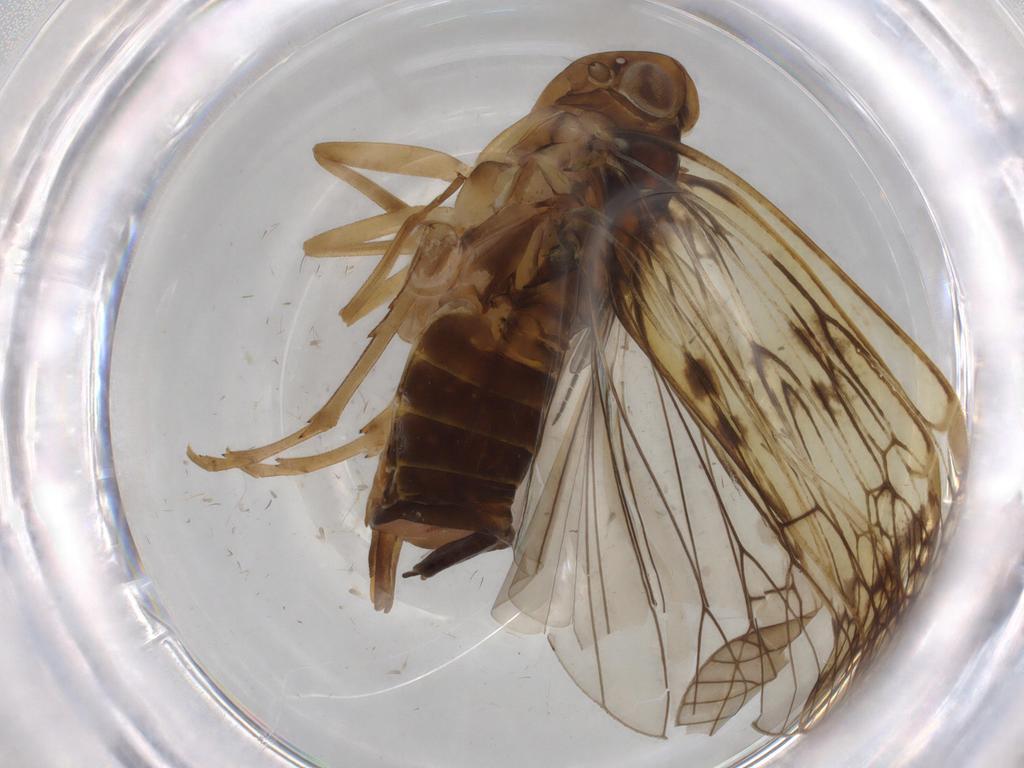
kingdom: Animalia
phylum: Arthropoda
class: Insecta
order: Hemiptera
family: Cixiidae
